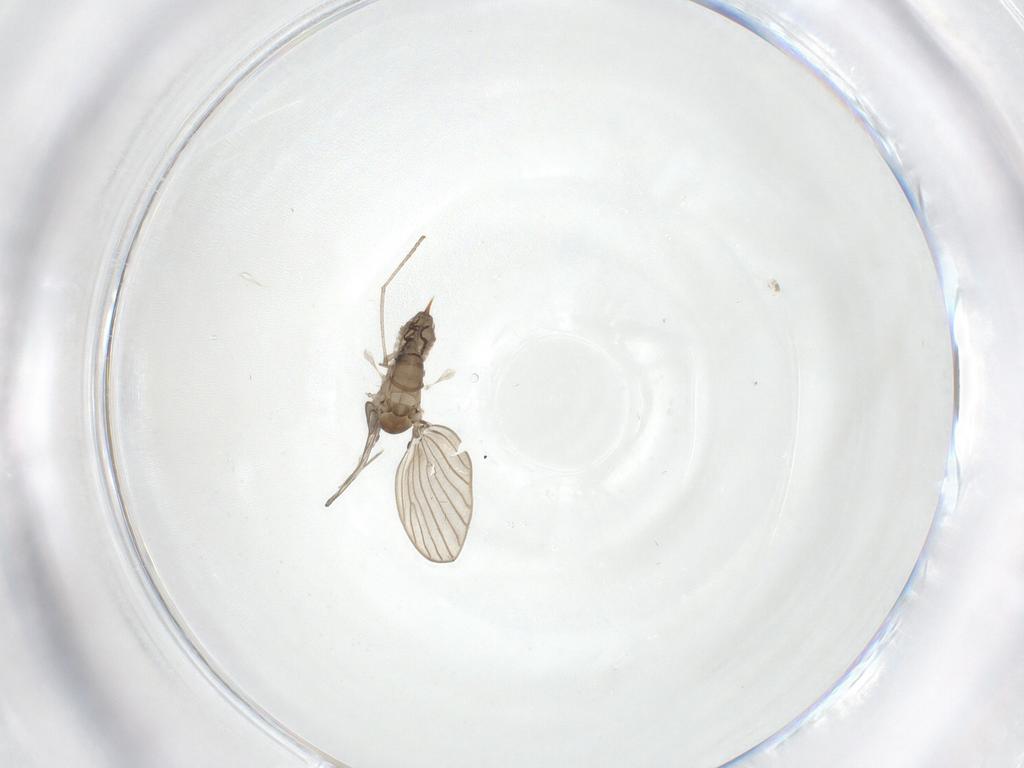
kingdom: Animalia
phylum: Arthropoda
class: Insecta
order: Diptera
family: Psychodidae
